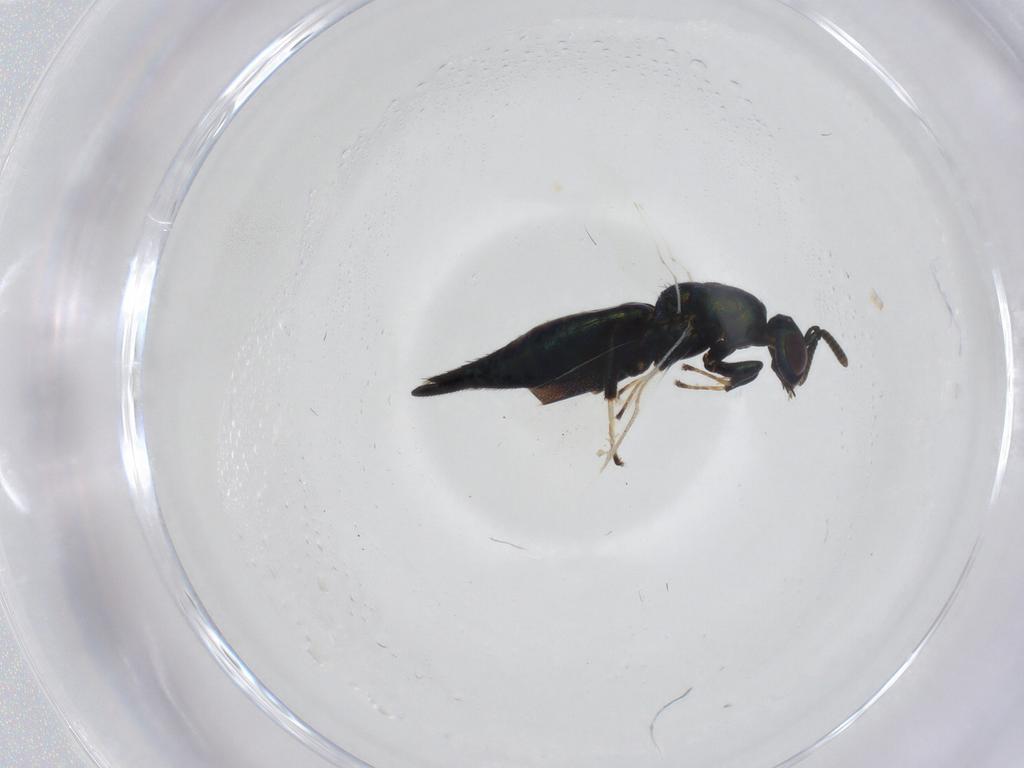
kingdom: Animalia
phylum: Arthropoda
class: Insecta
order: Hymenoptera
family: Pteromalidae
